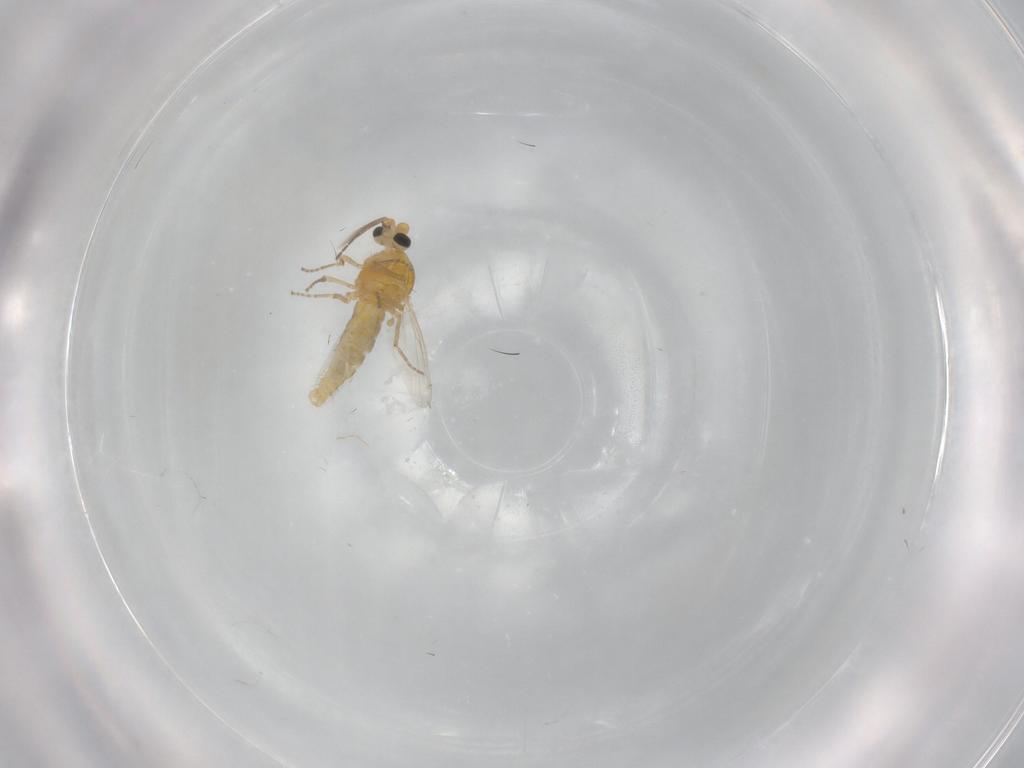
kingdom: Animalia
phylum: Arthropoda
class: Insecta
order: Diptera
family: Ceratopogonidae
